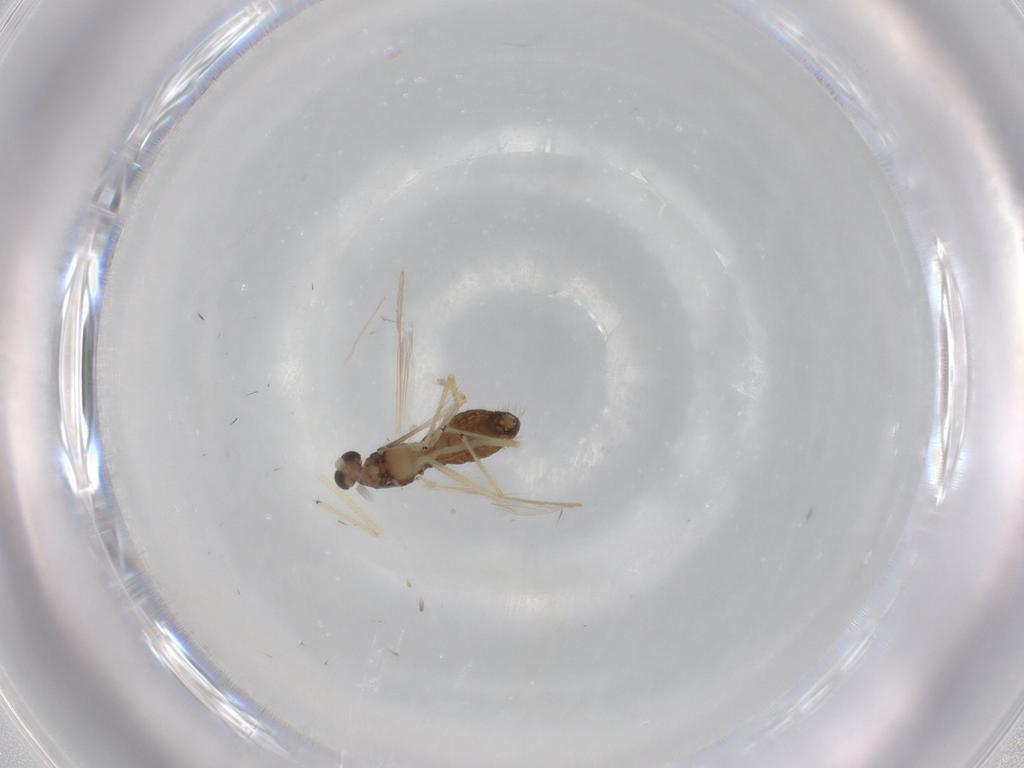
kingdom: Animalia
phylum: Arthropoda
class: Insecta
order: Diptera
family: Chironomidae
